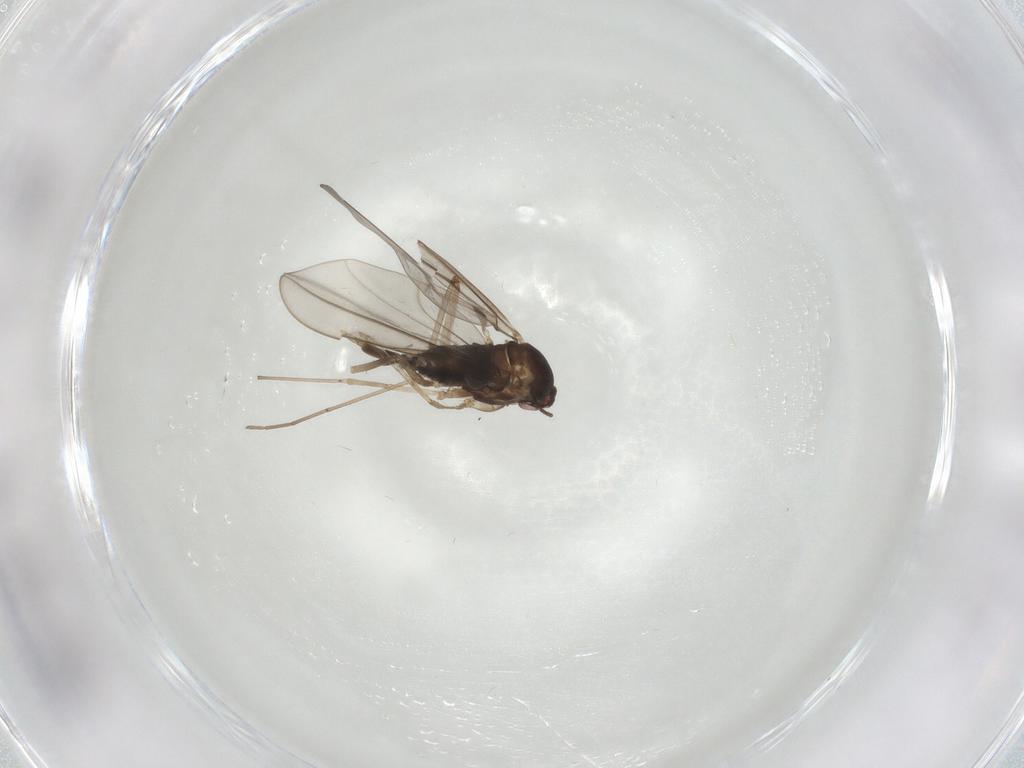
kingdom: Animalia
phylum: Arthropoda
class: Insecta
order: Diptera
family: Cecidomyiidae
